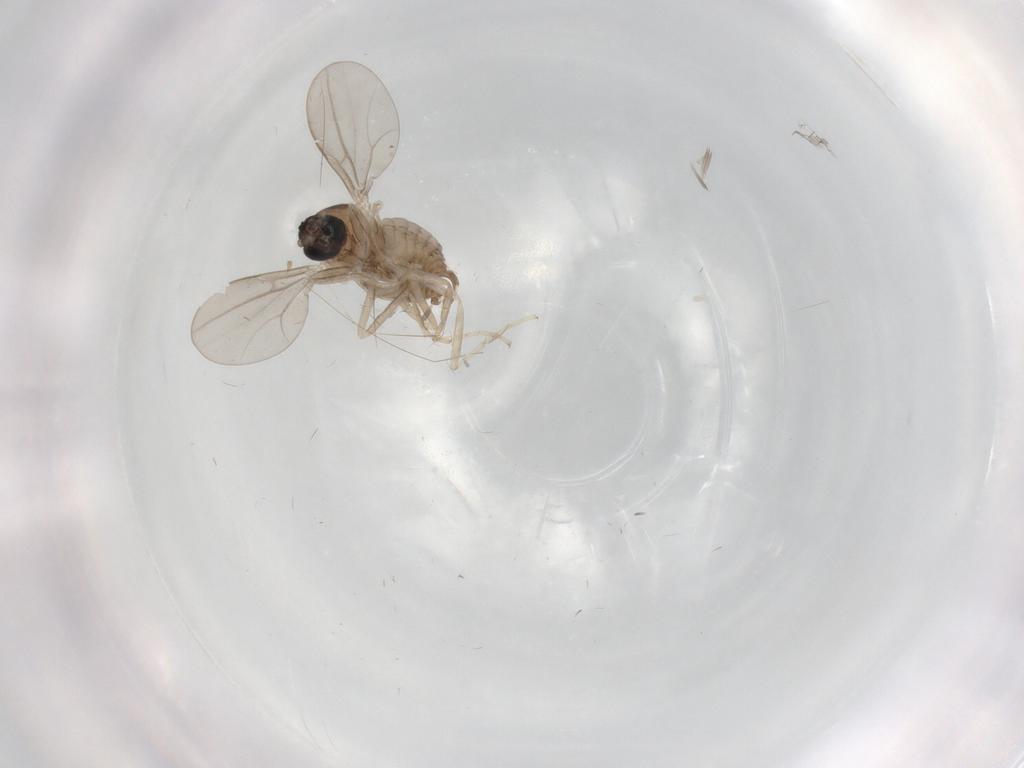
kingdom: Animalia
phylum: Arthropoda
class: Insecta
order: Diptera
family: Cecidomyiidae
